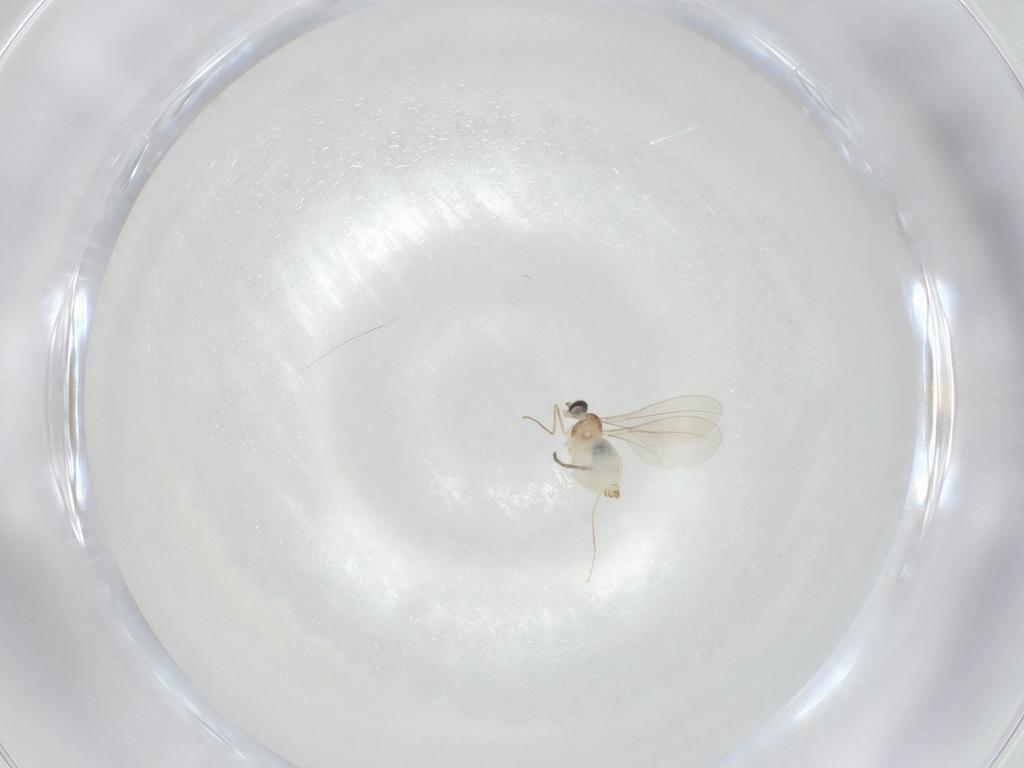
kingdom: Animalia
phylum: Arthropoda
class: Insecta
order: Diptera
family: Cecidomyiidae
